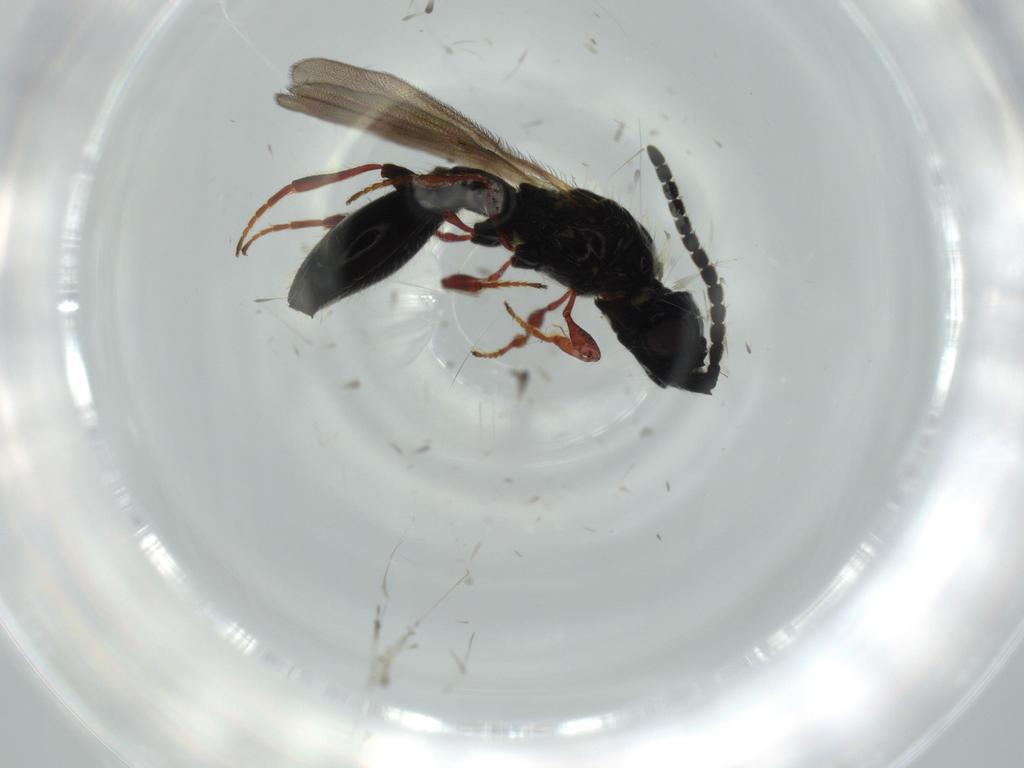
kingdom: Animalia
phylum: Arthropoda
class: Insecta
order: Hymenoptera
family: Diapriidae
